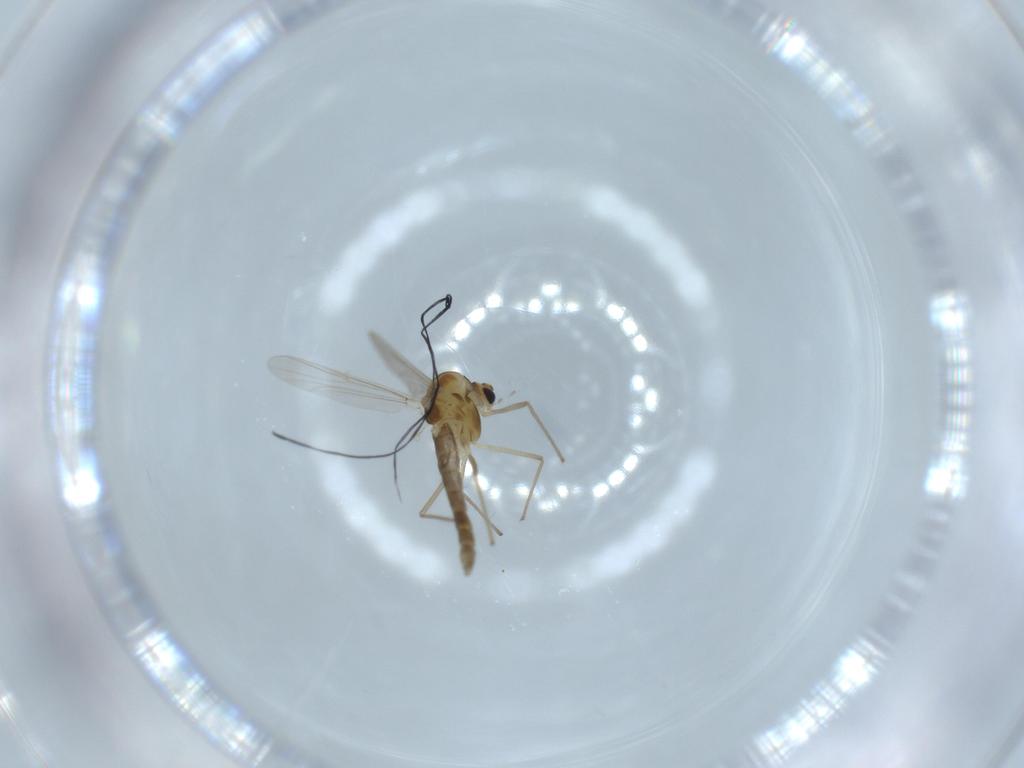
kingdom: Animalia
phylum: Arthropoda
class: Insecta
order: Diptera
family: Chironomidae
